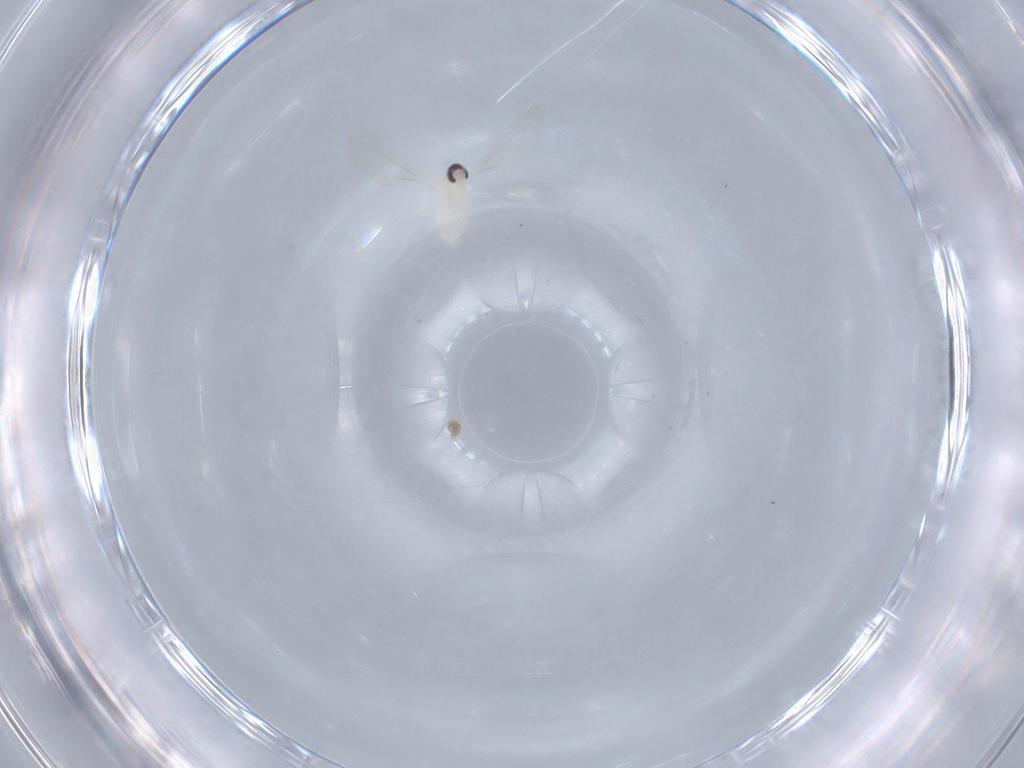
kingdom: Animalia
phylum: Arthropoda
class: Insecta
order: Diptera
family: Cecidomyiidae
